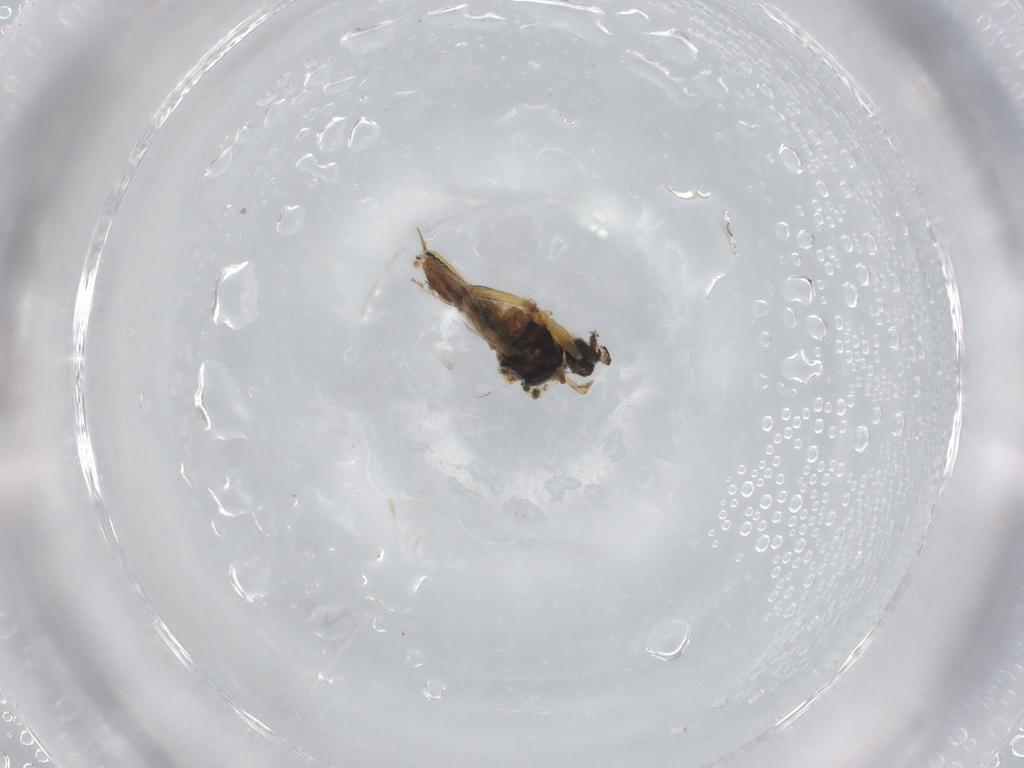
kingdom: Animalia
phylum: Arthropoda
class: Insecta
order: Diptera
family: Hybotidae
